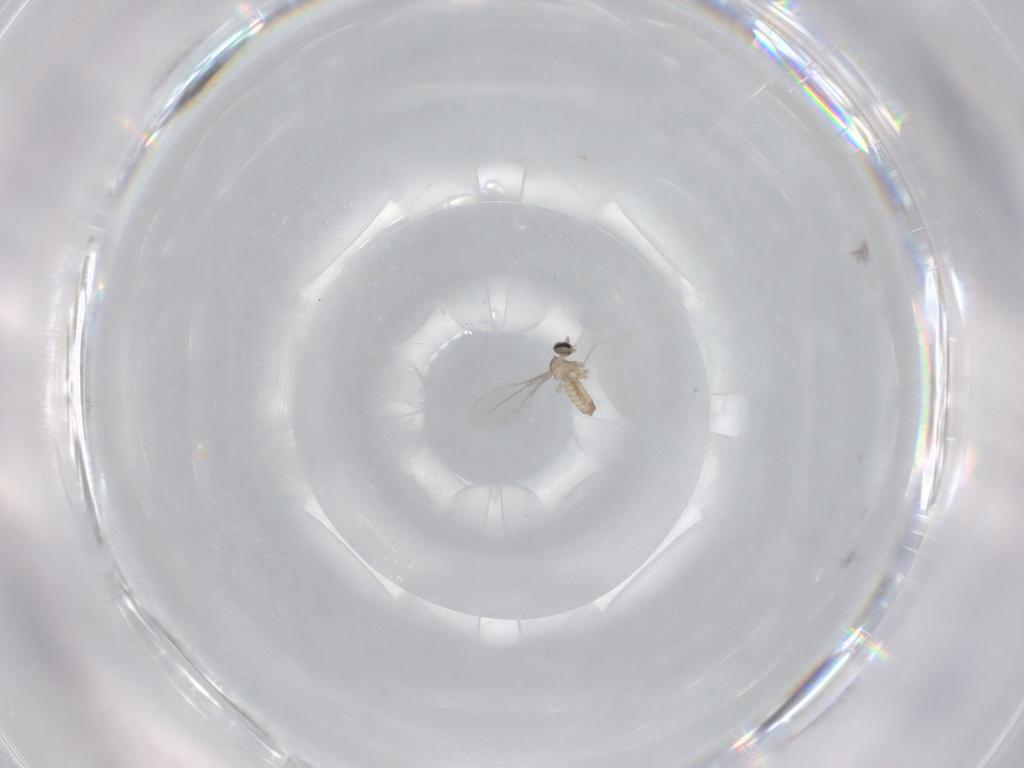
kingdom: Animalia
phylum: Arthropoda
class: Insecta
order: Diptera
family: Cecidomyiidae
